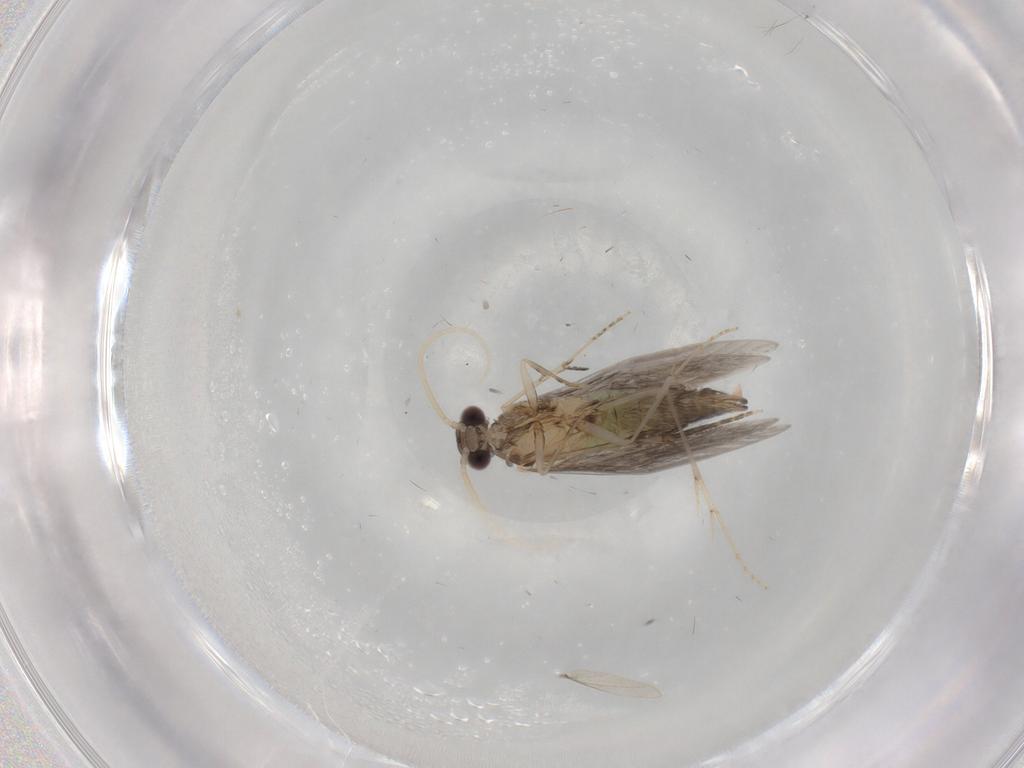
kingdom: Animalia
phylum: Arthropoda
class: Insecta
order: Trichoptera
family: Hydroptilidae
